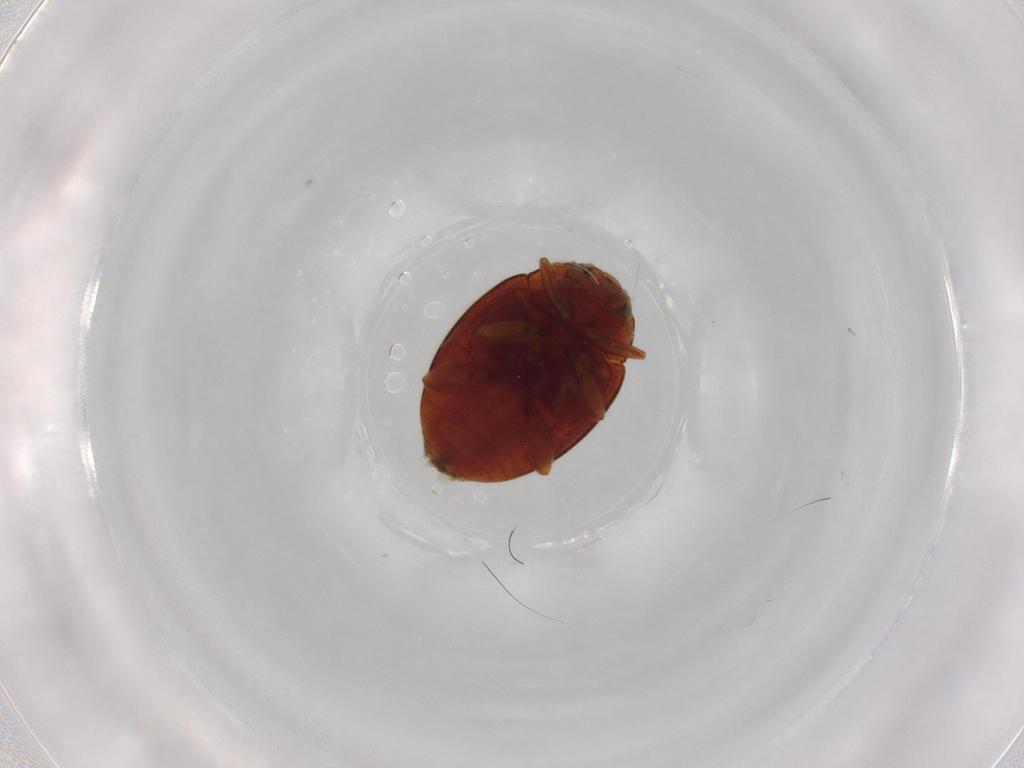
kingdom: Animalia
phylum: Arthropoda
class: Insecta
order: Coleoptera
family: Coccinellidae
